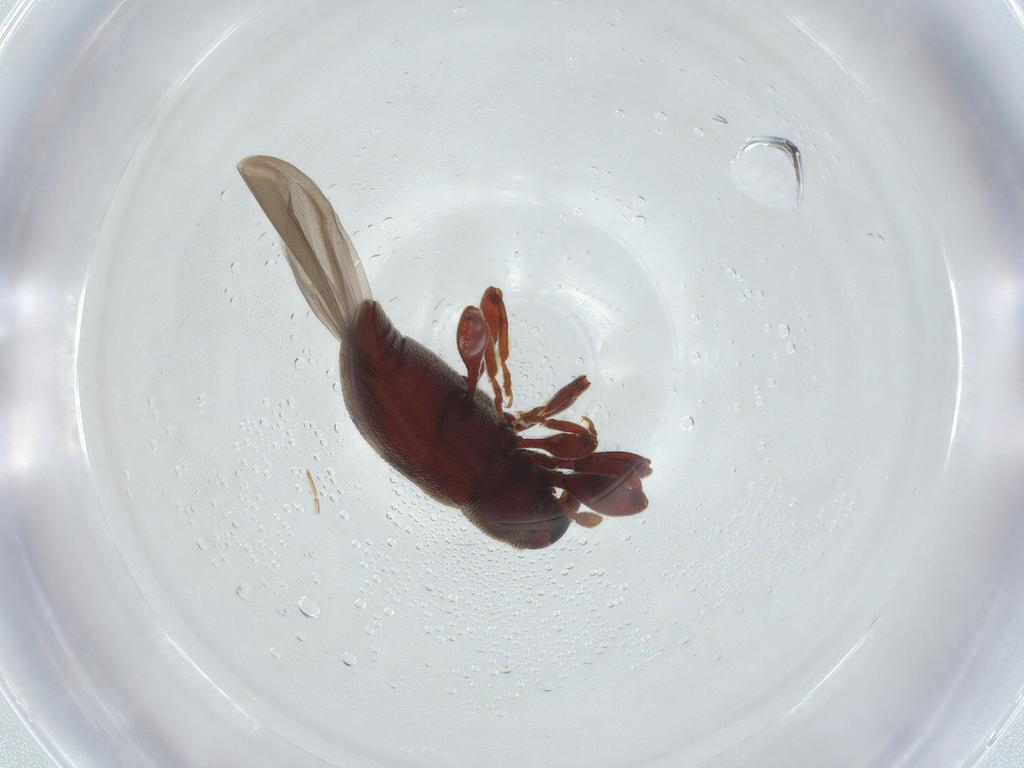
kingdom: Animalia
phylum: Arthropoda
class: Insecta
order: Coleoptera
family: Curculionidae
